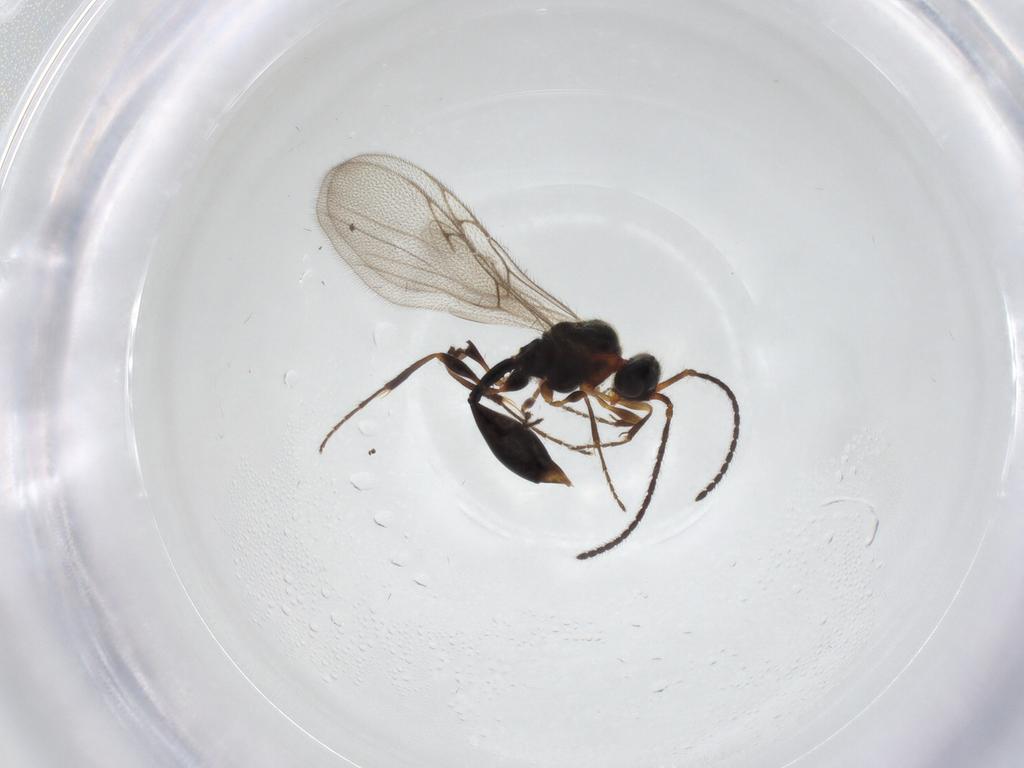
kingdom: Animalia
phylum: Arthropoda
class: Insecta
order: Hymenoptera
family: Diapriidae
